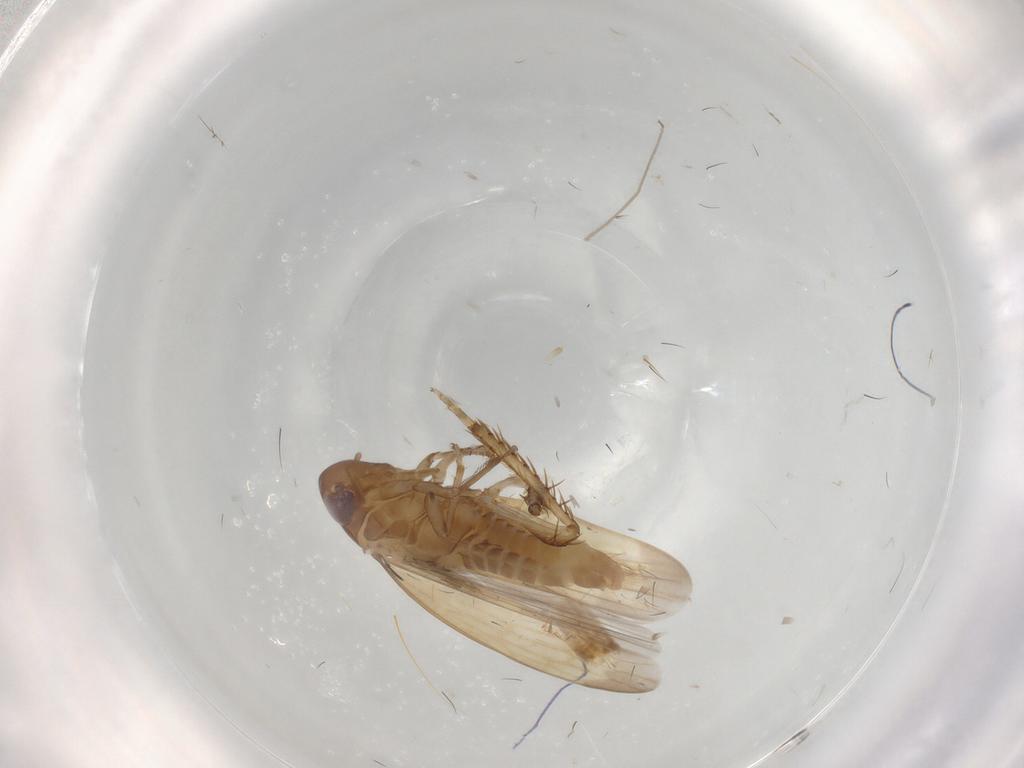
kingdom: Animalia
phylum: Arthropoda
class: Insecta
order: Hemiptera
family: Cicadellidae
